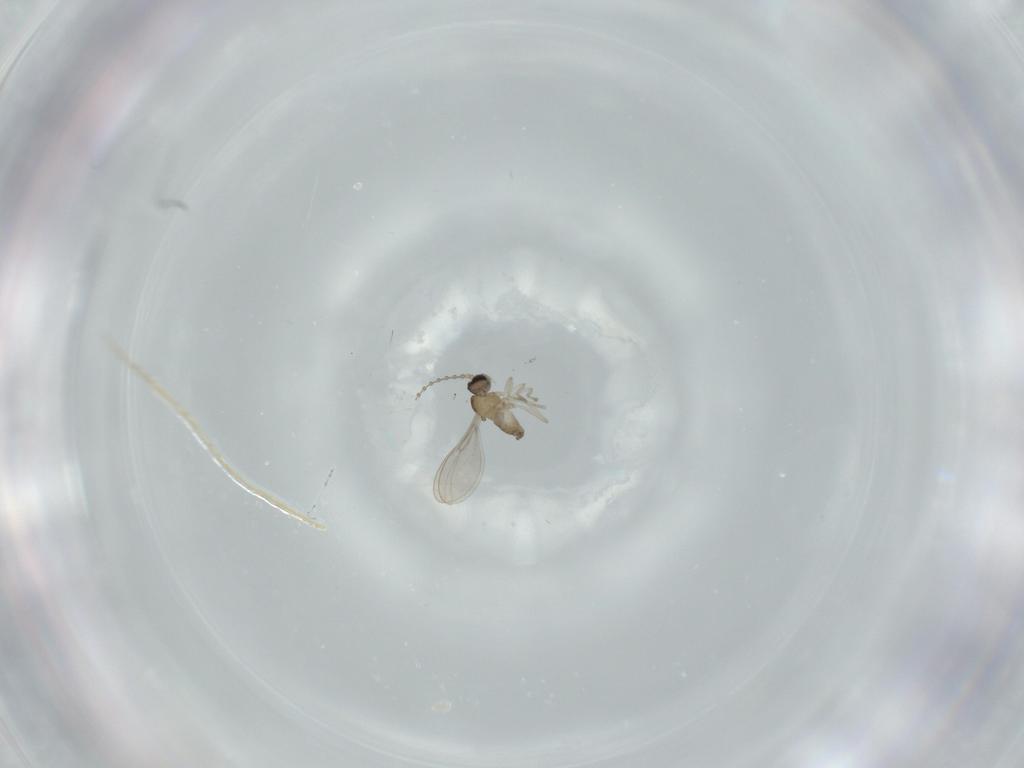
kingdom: Animalia
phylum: Arthropoda
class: Insecta
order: Diptera
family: Cecidomyiidae
